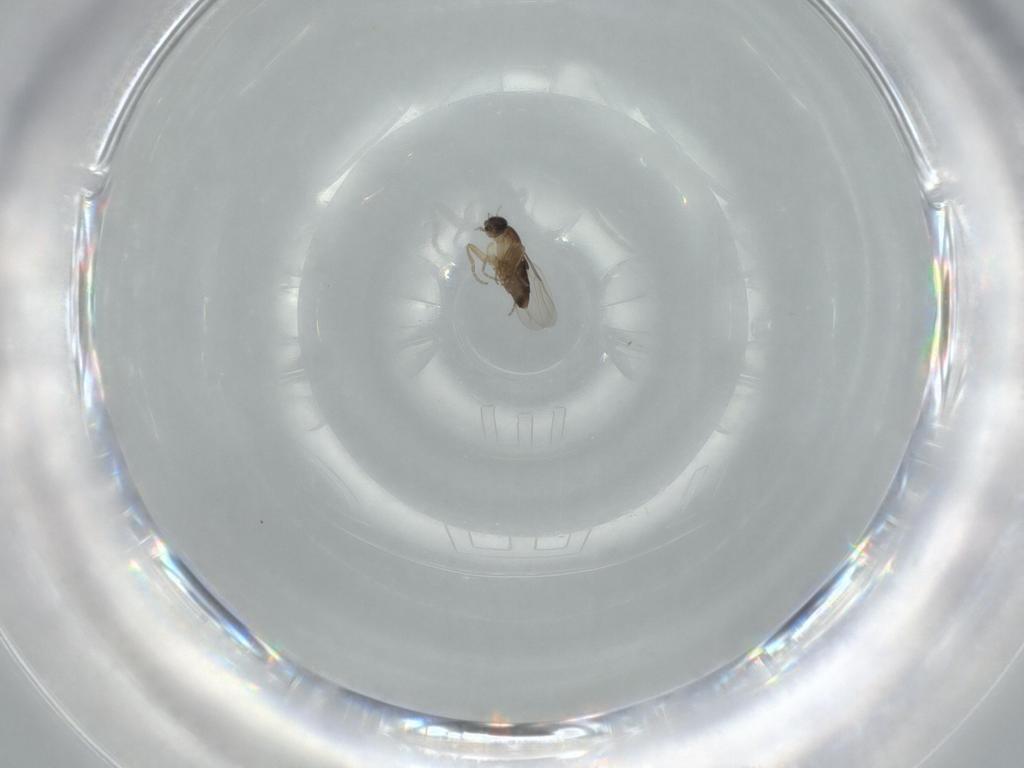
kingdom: Animalia
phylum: Arthropoda
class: Insecta
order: Diptera
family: Phoridae
